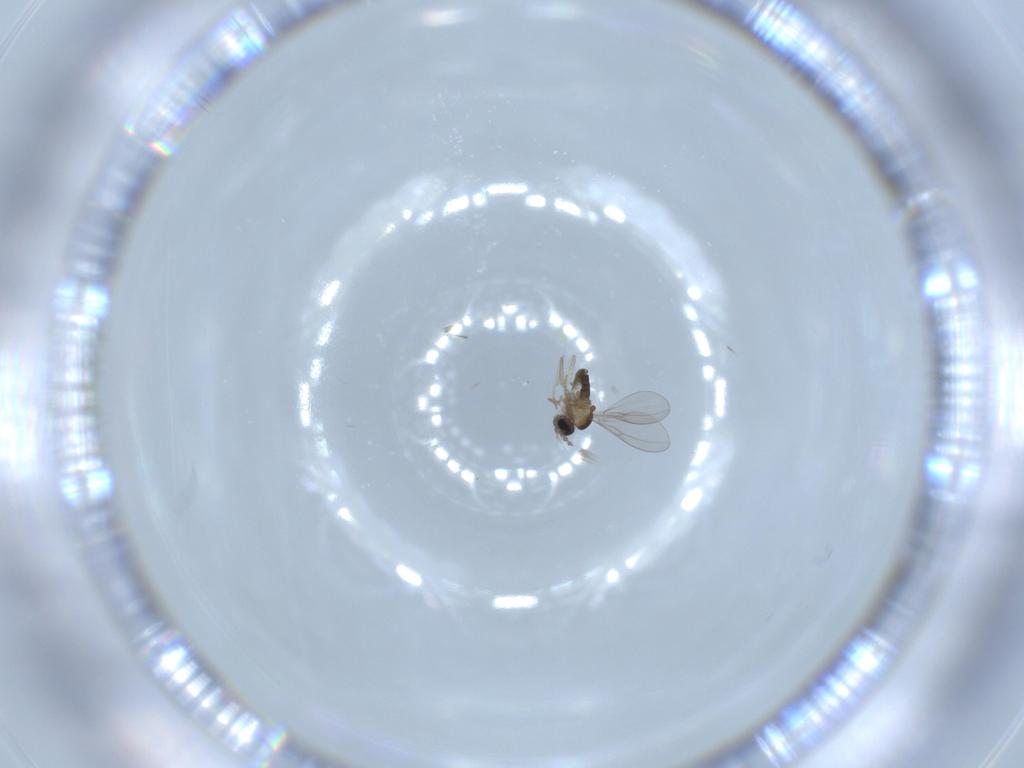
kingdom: Animalia
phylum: Arthropoda
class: Insecta
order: Diptera
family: Cecidomyiidae
